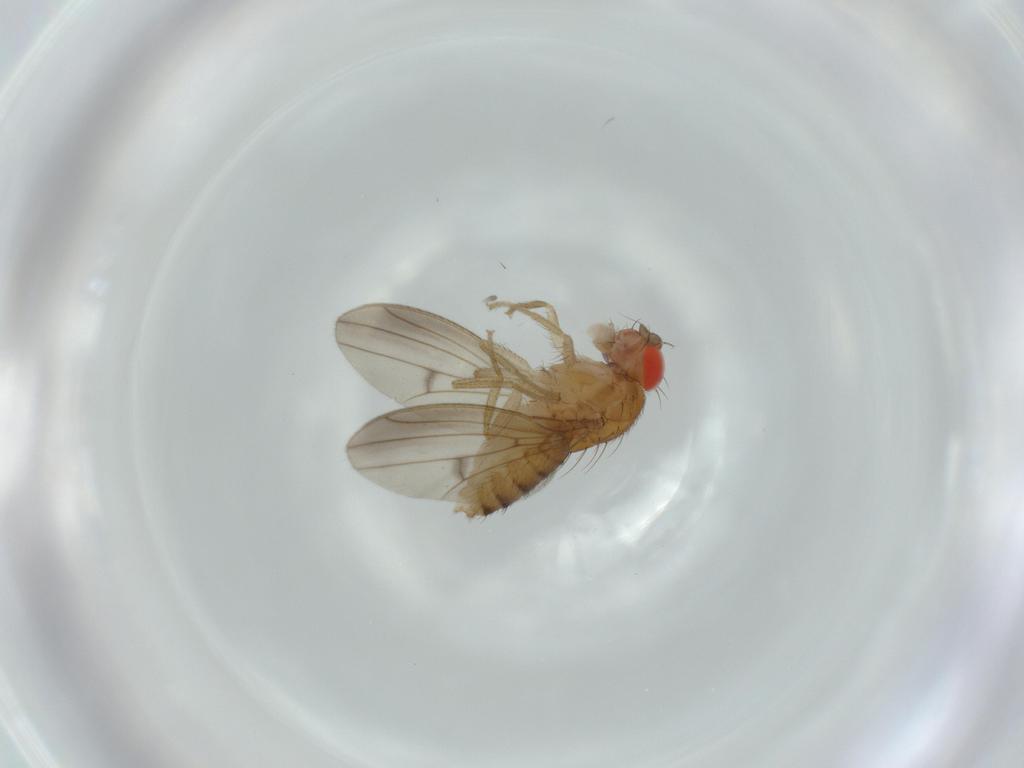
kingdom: Animalia
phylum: Arthropoda
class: Insecta
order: Diptera
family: Drosophilidae
